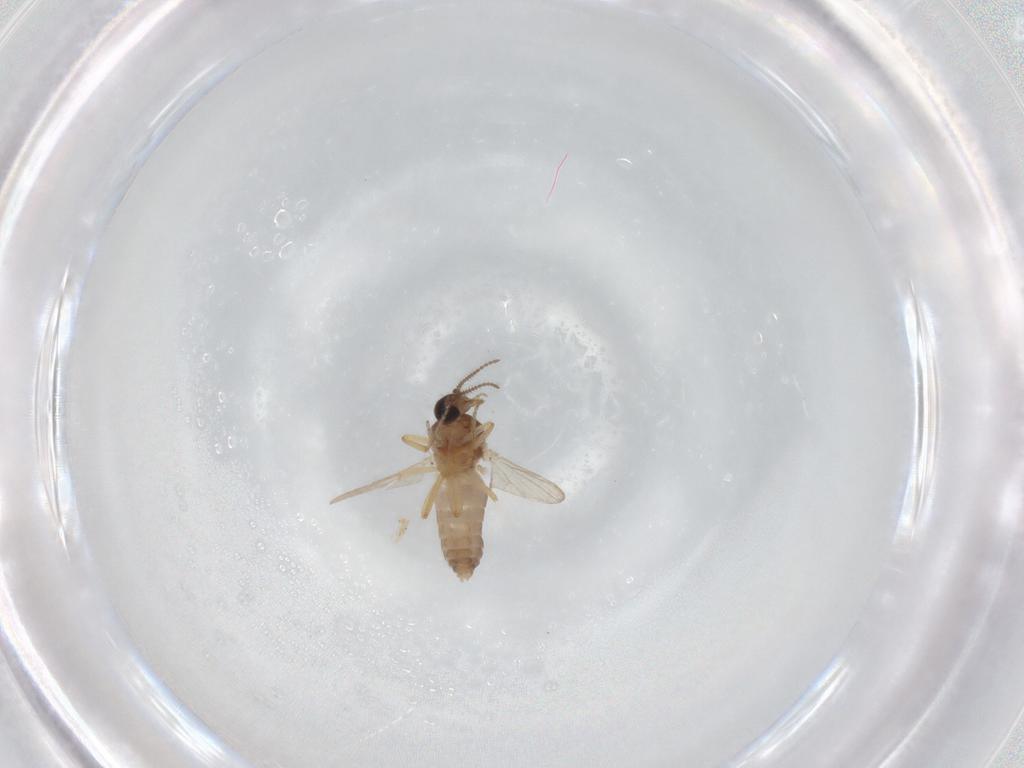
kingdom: Animalia
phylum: Arthropoda
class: Insecta
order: Diptera
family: Ceratopogonidae
